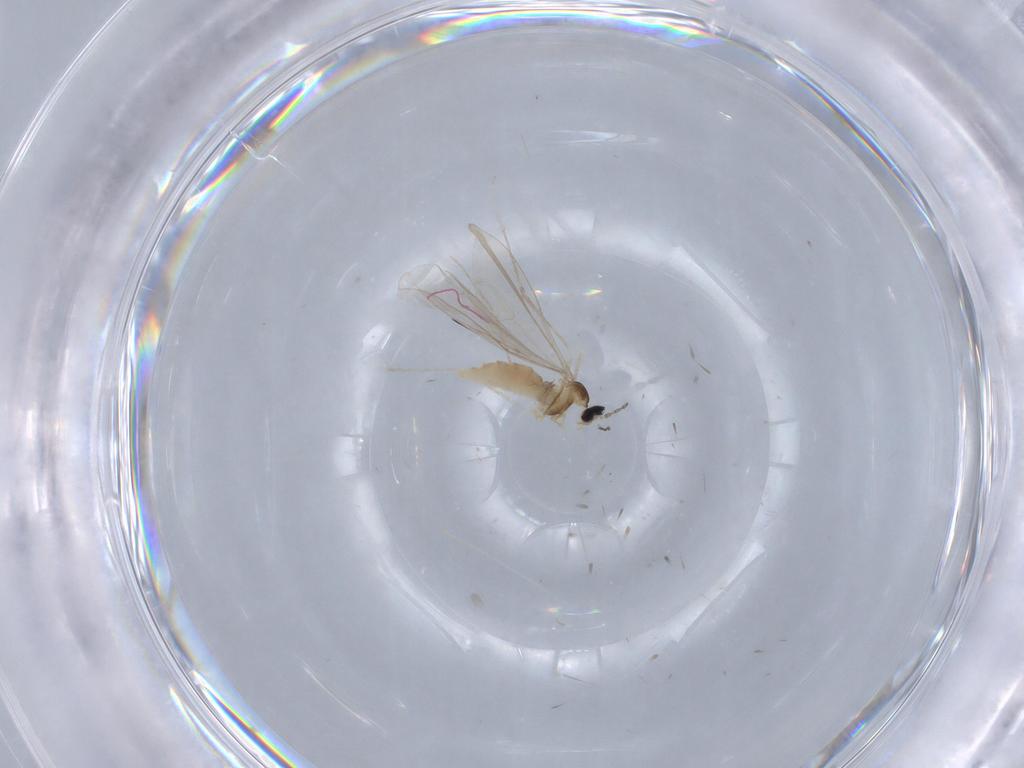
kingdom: Animalia
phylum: Arthropoda
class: Insecta
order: Diptera
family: Cecidomyiidae
